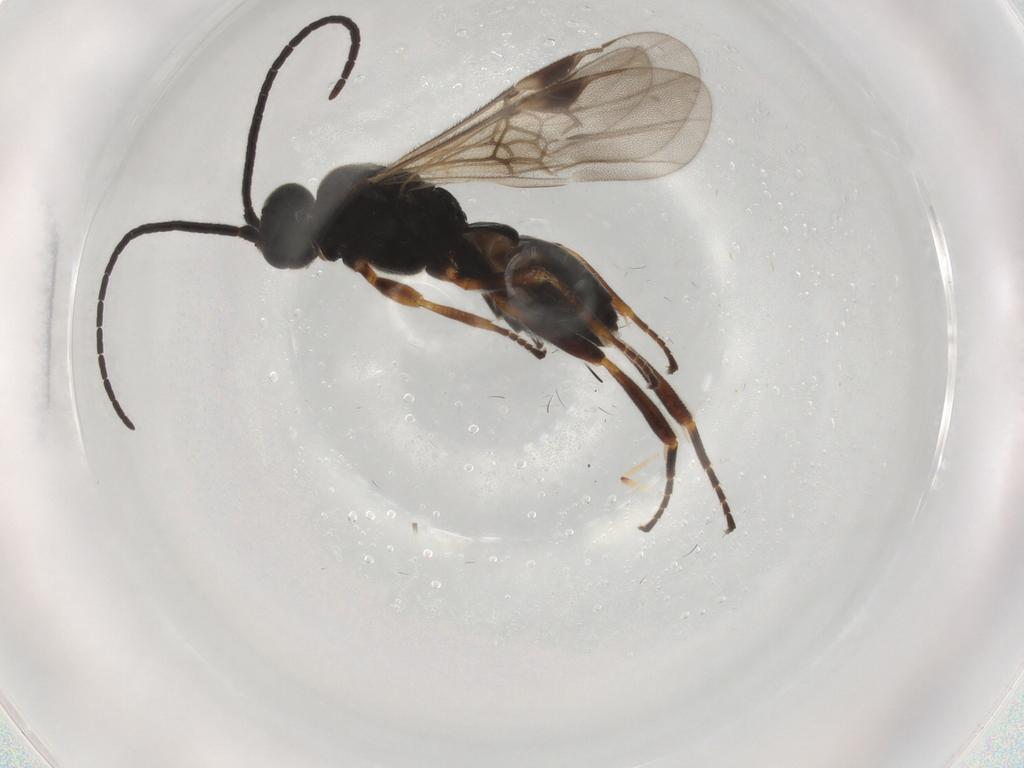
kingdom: Animalia
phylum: Arthropoda
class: Insecta
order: Hymenoptera
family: Braconidae
